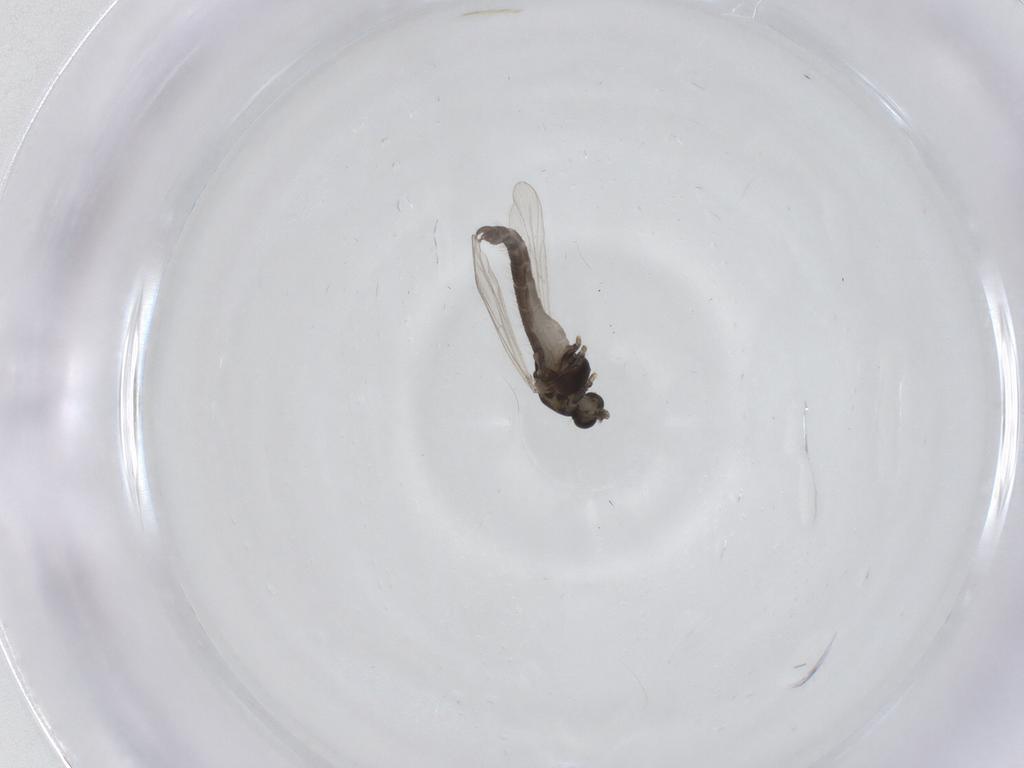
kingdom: Animalia
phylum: Arthropoda
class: Insecta
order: Diptera
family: Chironomidae
